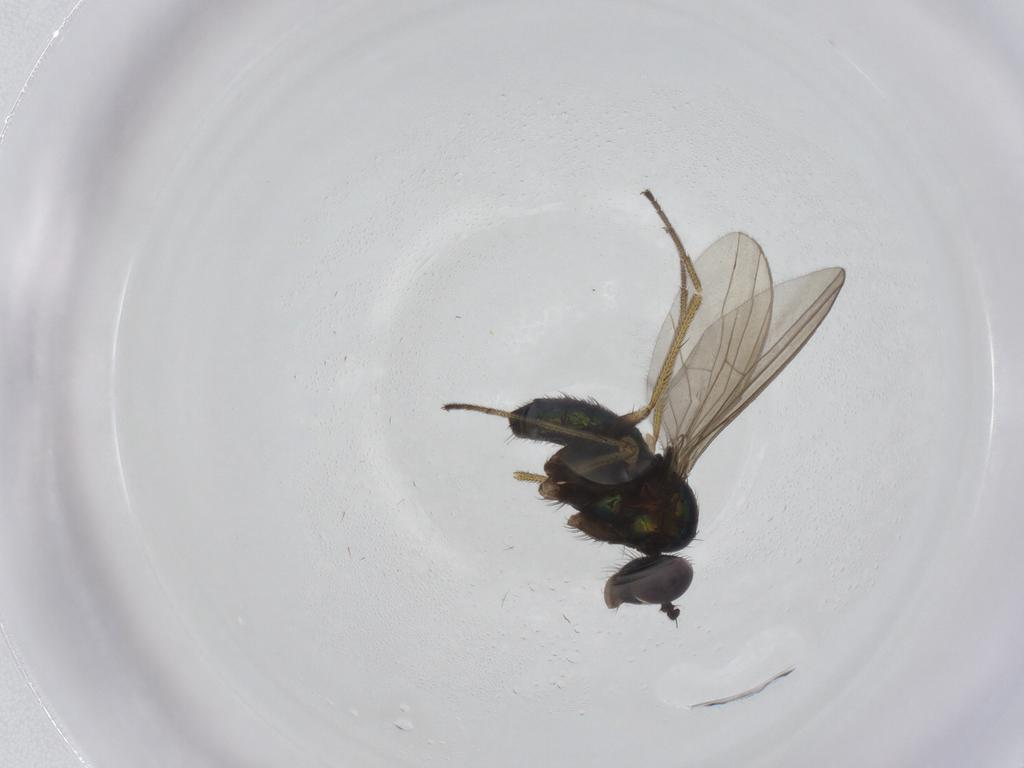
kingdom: Animalia
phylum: Arthropoda
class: Insecta
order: Diptera
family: Dolichopodidae
